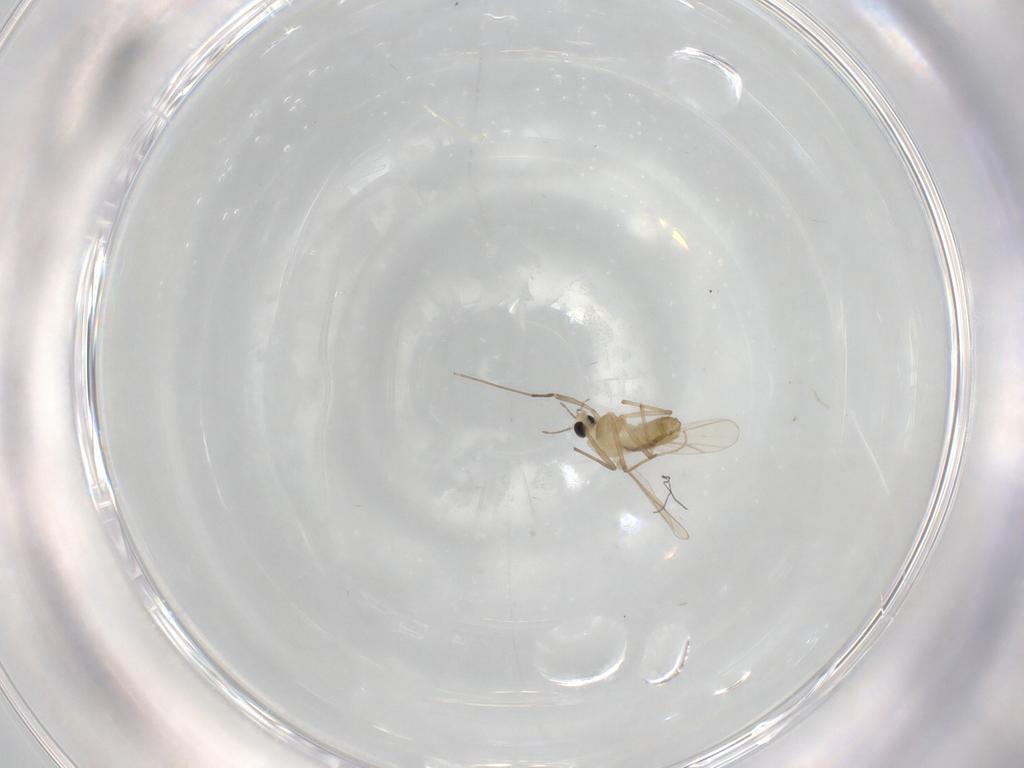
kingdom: Animalia
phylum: Arthropoda
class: Insecta
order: Diptera
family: Chironomidae
